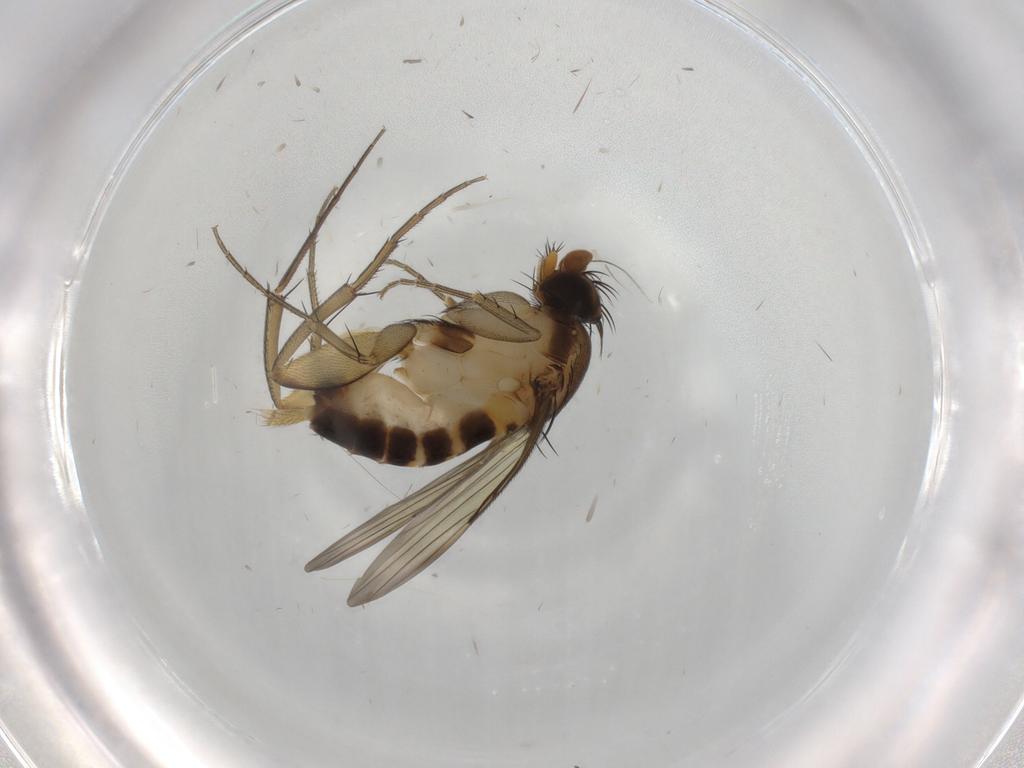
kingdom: Animalia
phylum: Arthropoda
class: Insecta
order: Diptera
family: Phoridae
